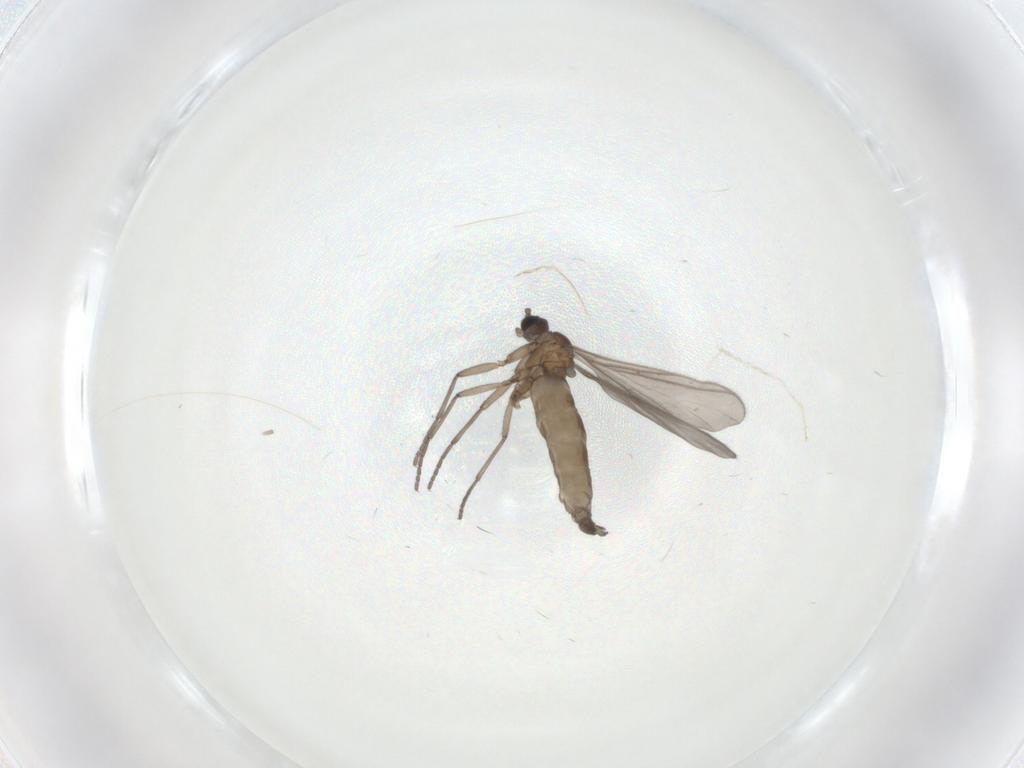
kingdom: Animalia
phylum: Arthropoda
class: Insecta
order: Diptera
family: Sciaridae
